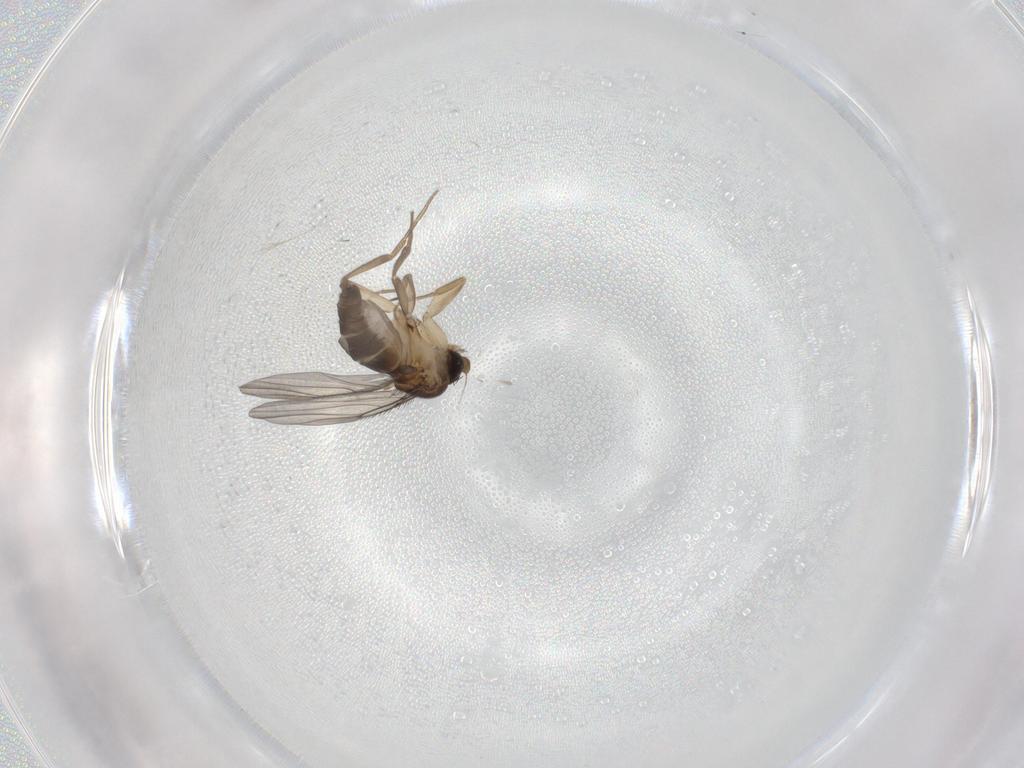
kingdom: Animalia
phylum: Arthropoda
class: Insecta
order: Diptera
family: Phoridae
